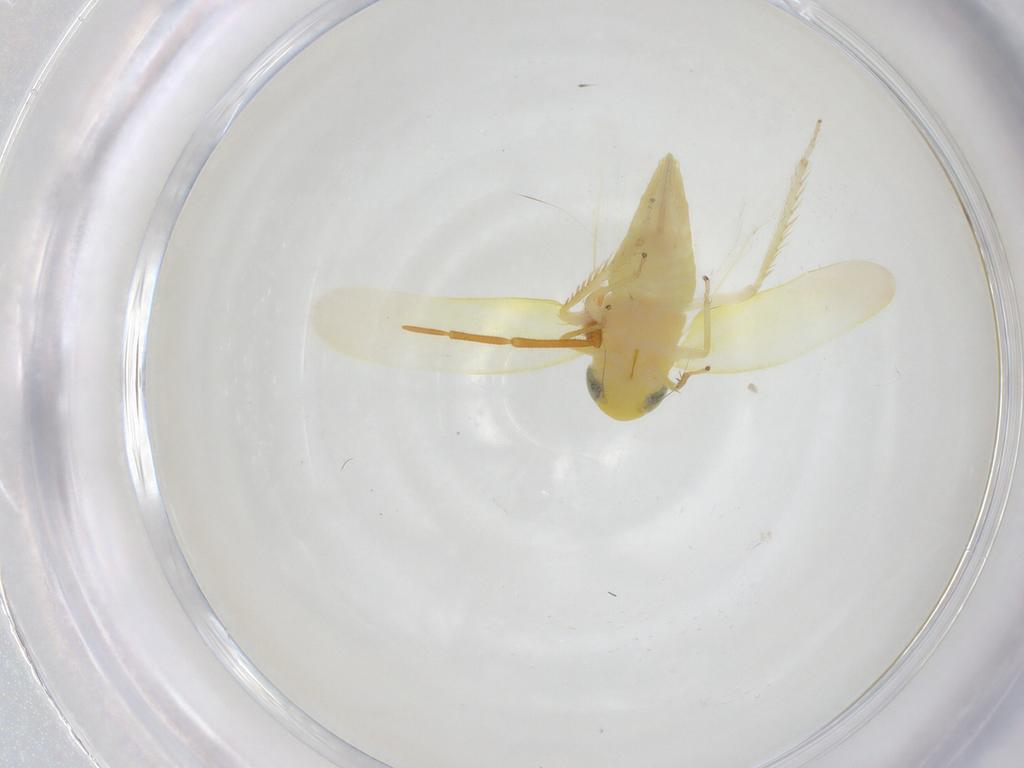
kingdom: Animalia
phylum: Arthropoda
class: Insecta
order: Hemiptera
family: Cicadellidae
